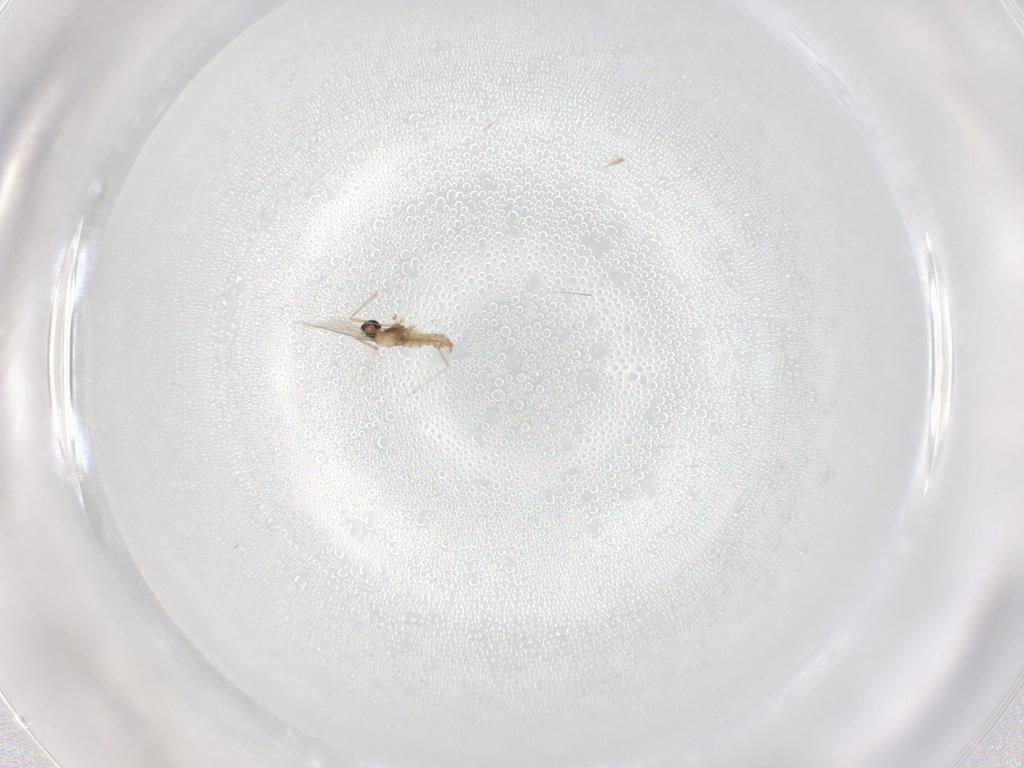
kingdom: Animalia
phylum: Arthropoda
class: Insecta
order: Diptera
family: Cecidomyiidae
